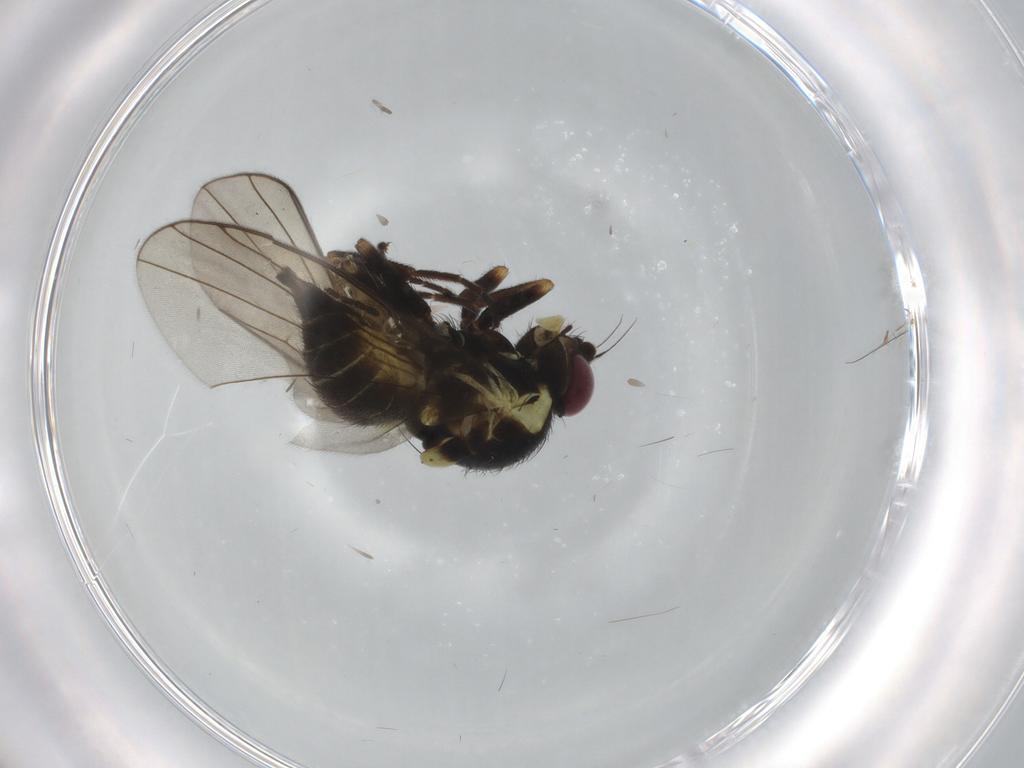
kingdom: Animalia
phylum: Arthropoda
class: Insecta
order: Diptera
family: Agromyzidae
